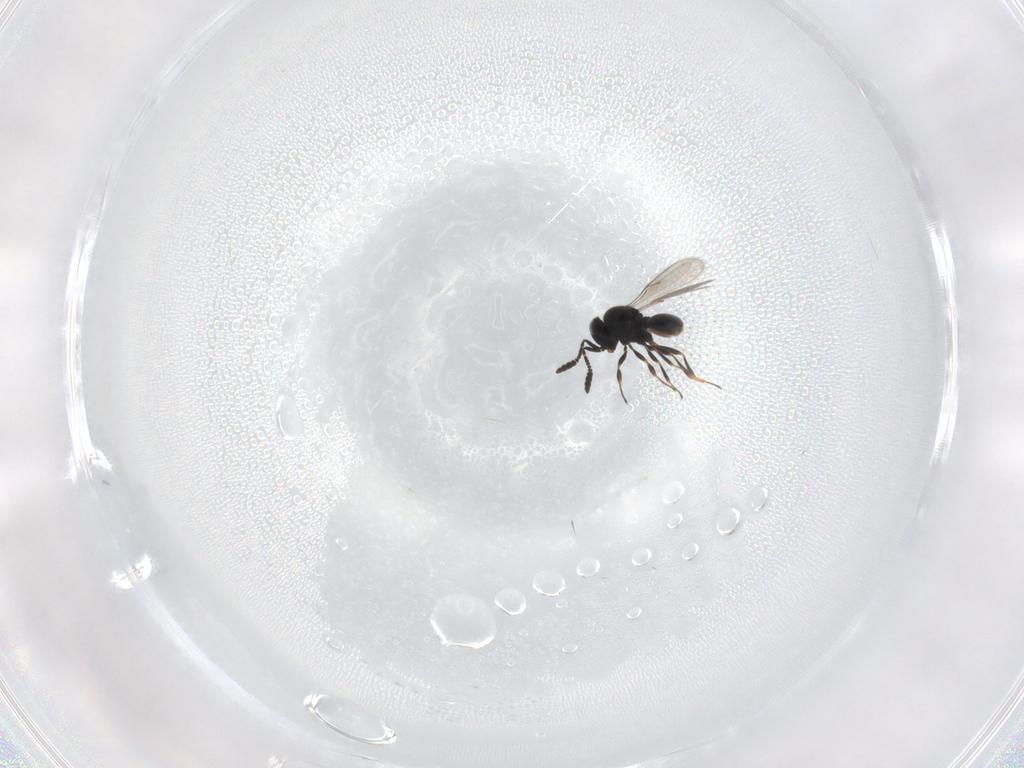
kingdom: Animalia
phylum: Arthropoda
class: Insecta
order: Hymenoptera
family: Scelionidae
